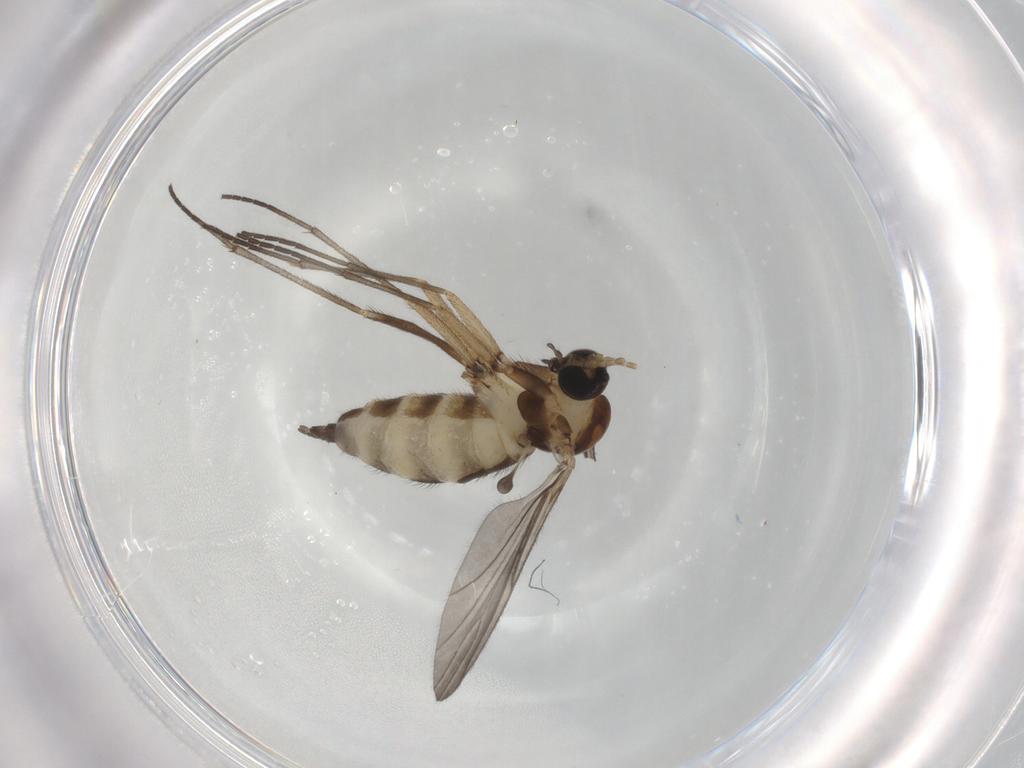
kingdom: Animalia
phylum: Arthropoda
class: Insecta
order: Diptera
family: Sciaridae
